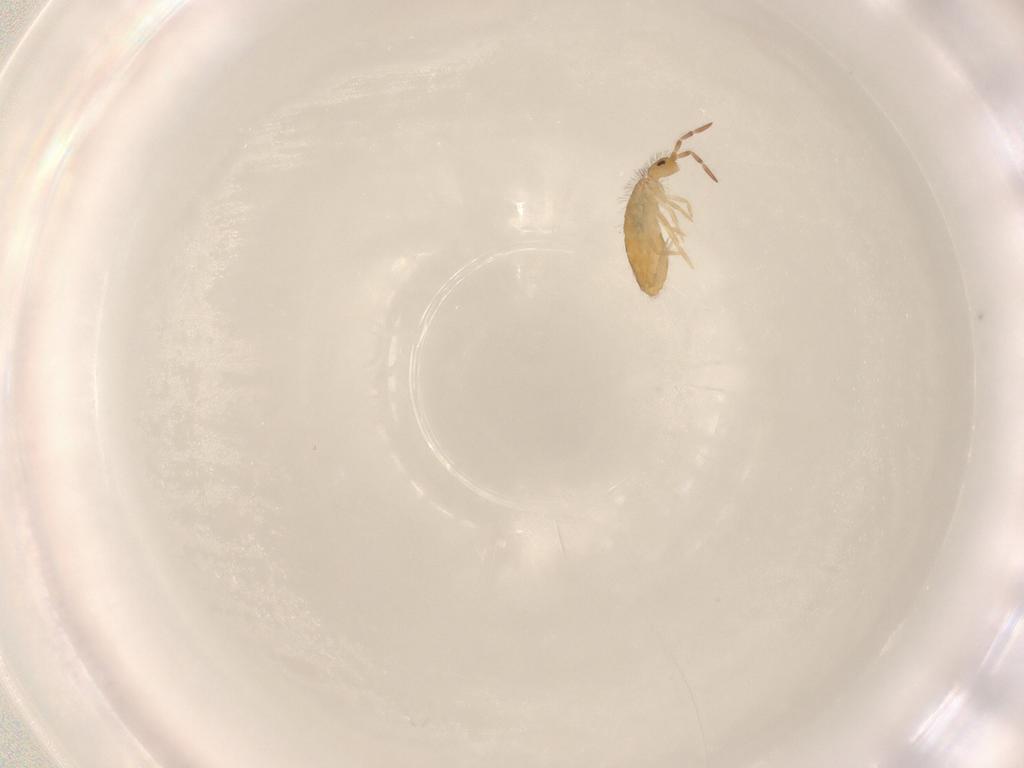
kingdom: Animalia
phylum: Arthropoda
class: Collembola
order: Entomobryomorpha
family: Entomobryidae
